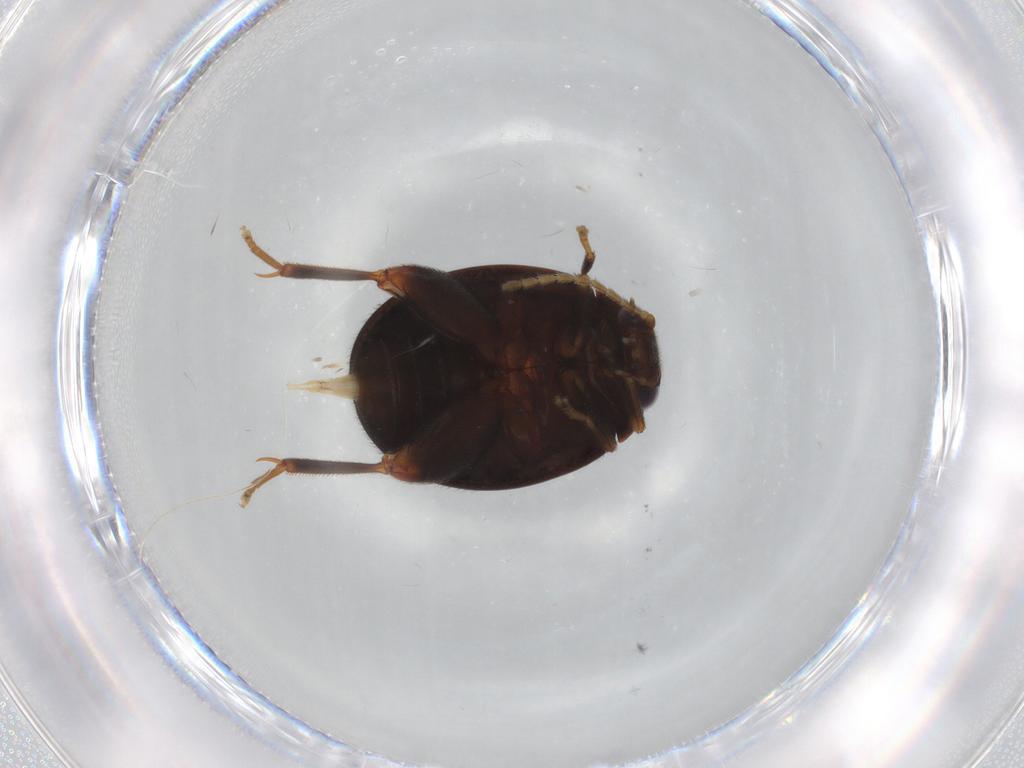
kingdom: Animalia
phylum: Arthropoda
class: Insecta
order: Coleoptera
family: Scirtidae
